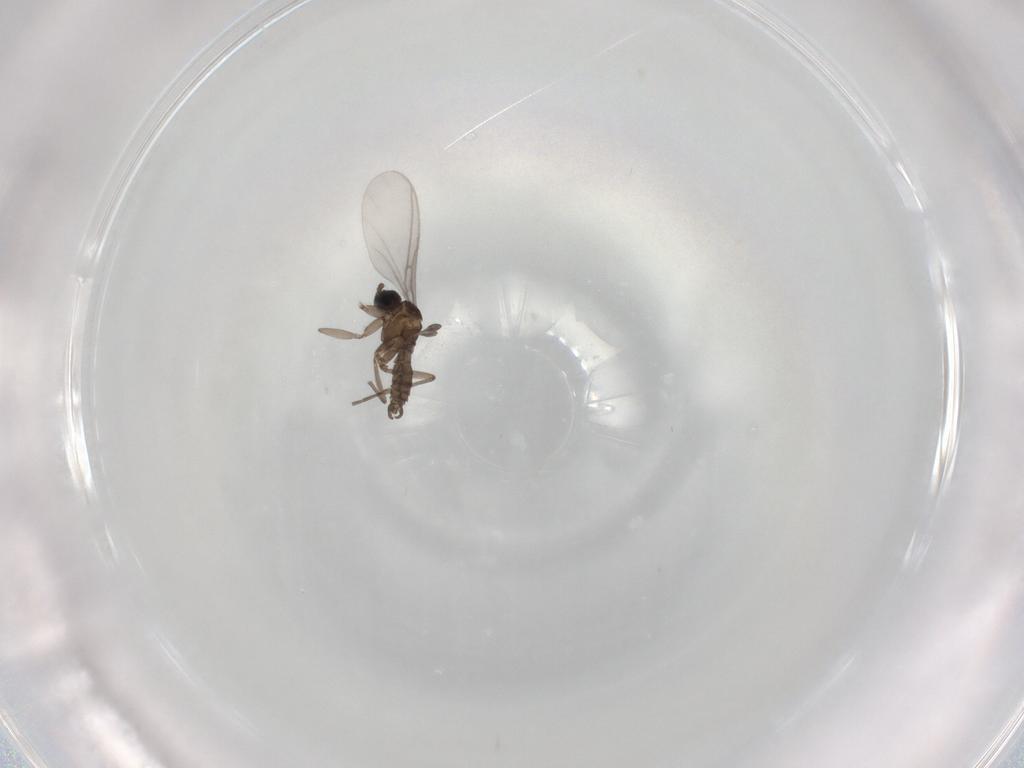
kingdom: Animalia
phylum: Arthropoda
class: Insecta
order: Diptera
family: Sciaridae
